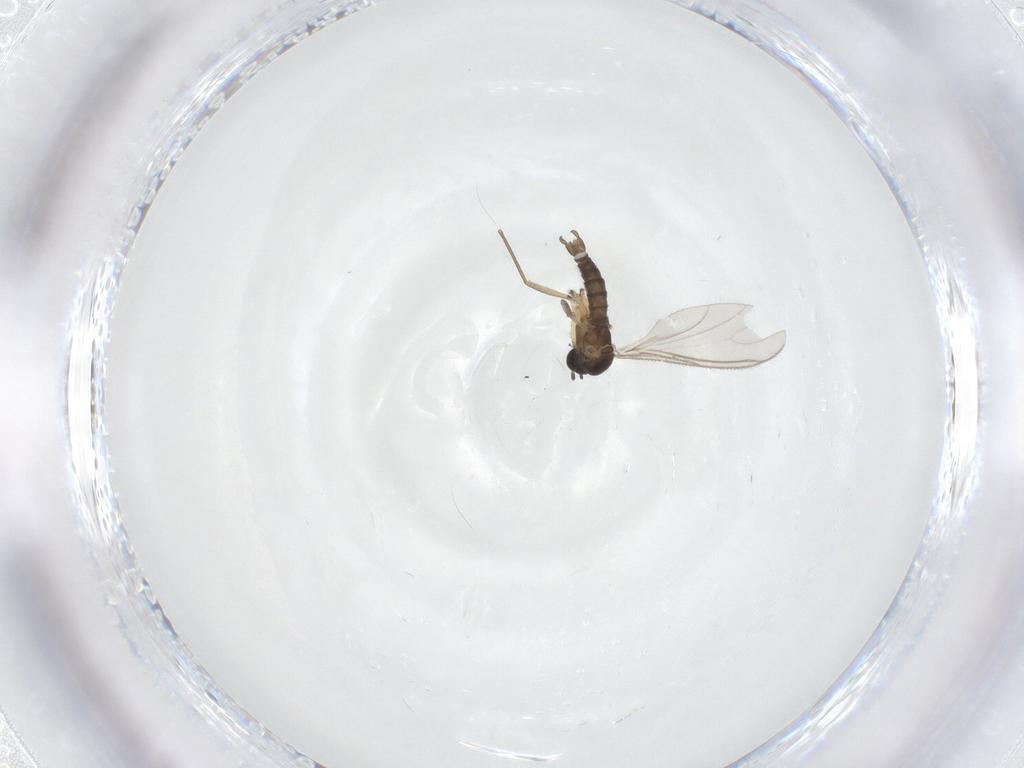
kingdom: Animalia
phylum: Arthropoda
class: Insecta
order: Diptera
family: Sciaridae
